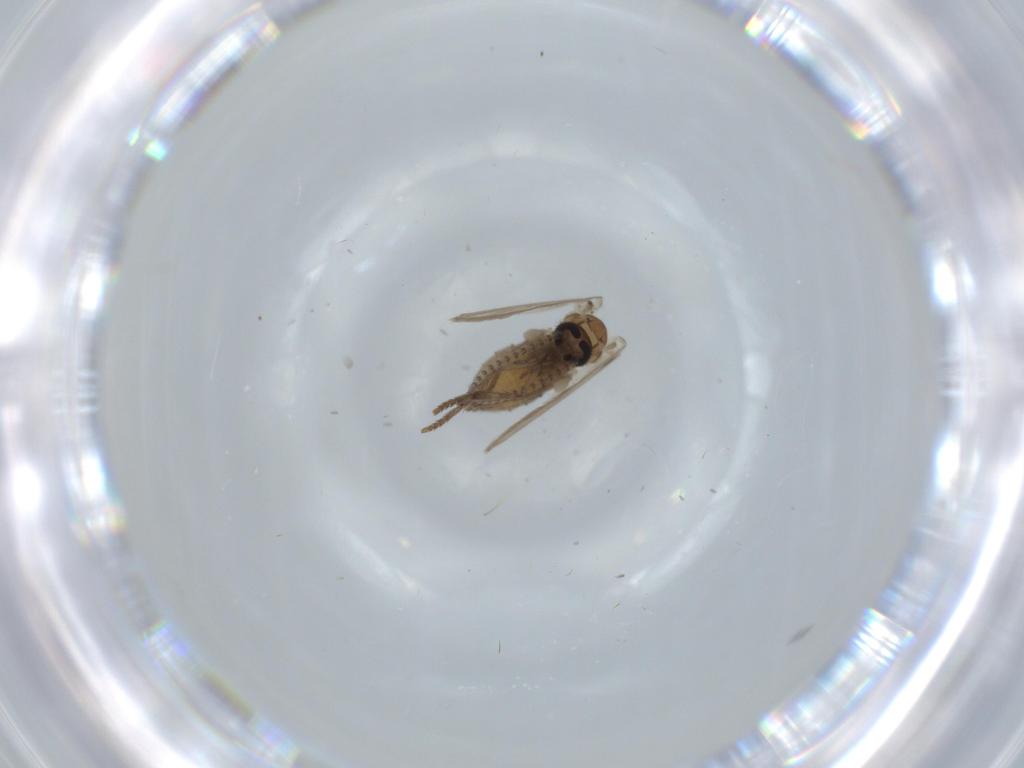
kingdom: Animalia
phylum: Arthropoda
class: Insecta
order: Diptera
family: Psychodidae
